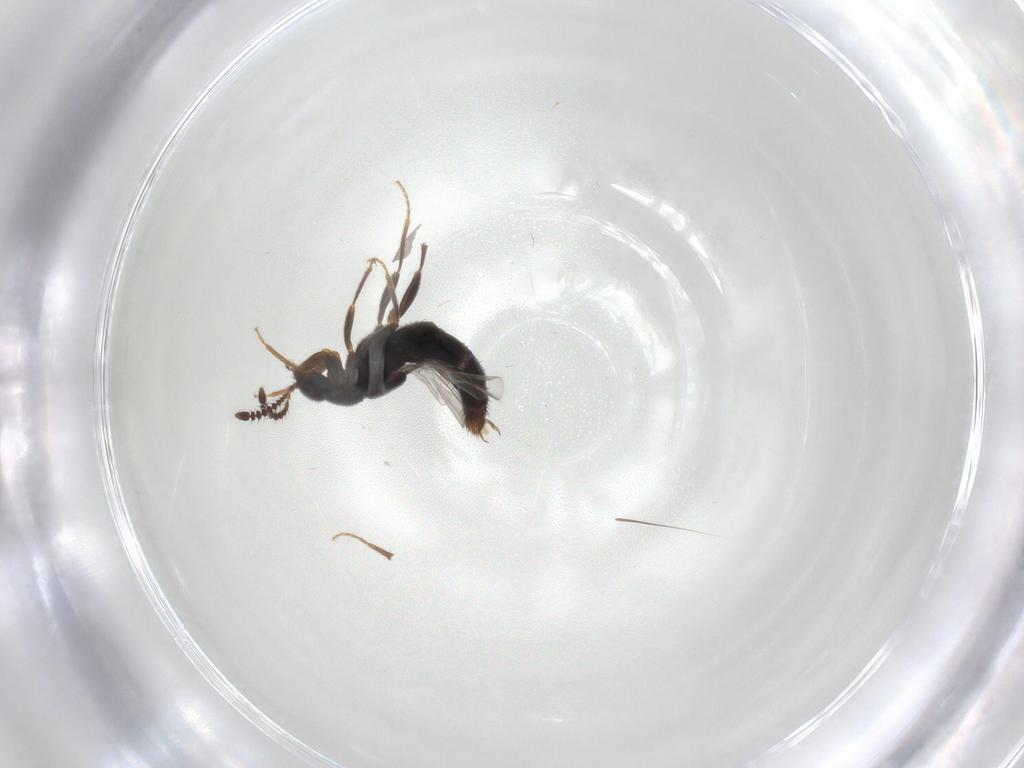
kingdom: Animalia
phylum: Arthropoda
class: Insecta
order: Coleoptera
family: Staphylinidae
